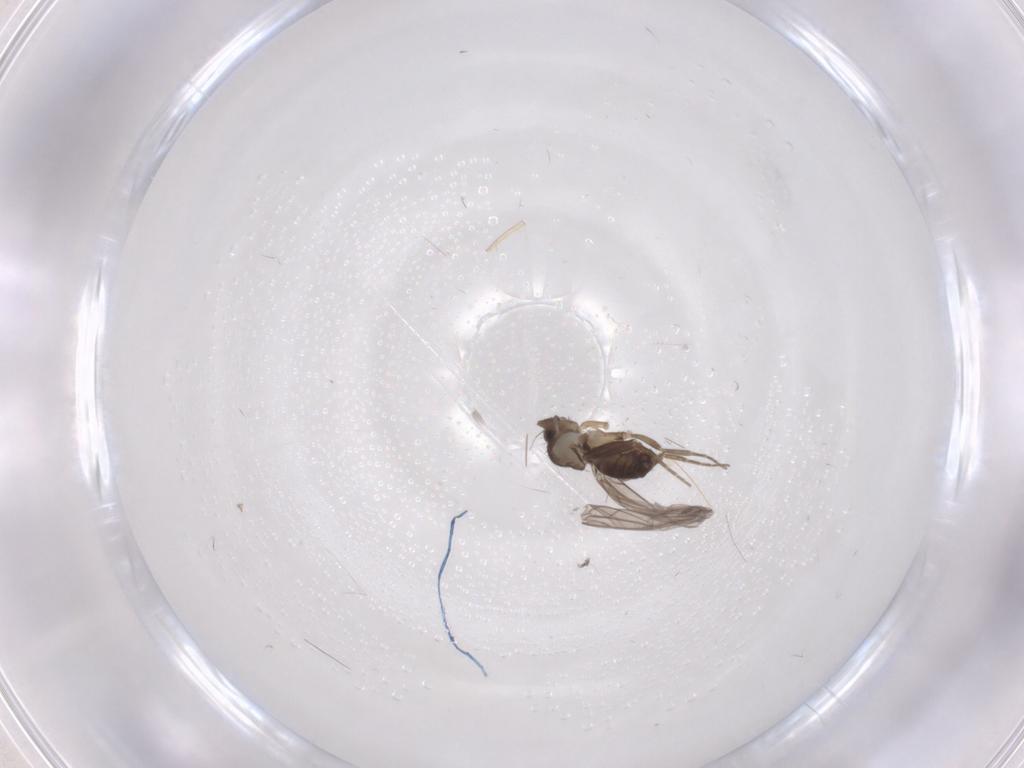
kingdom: Animalia
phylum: Arthropoda
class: Insecta
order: Diptera
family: Phoridae
